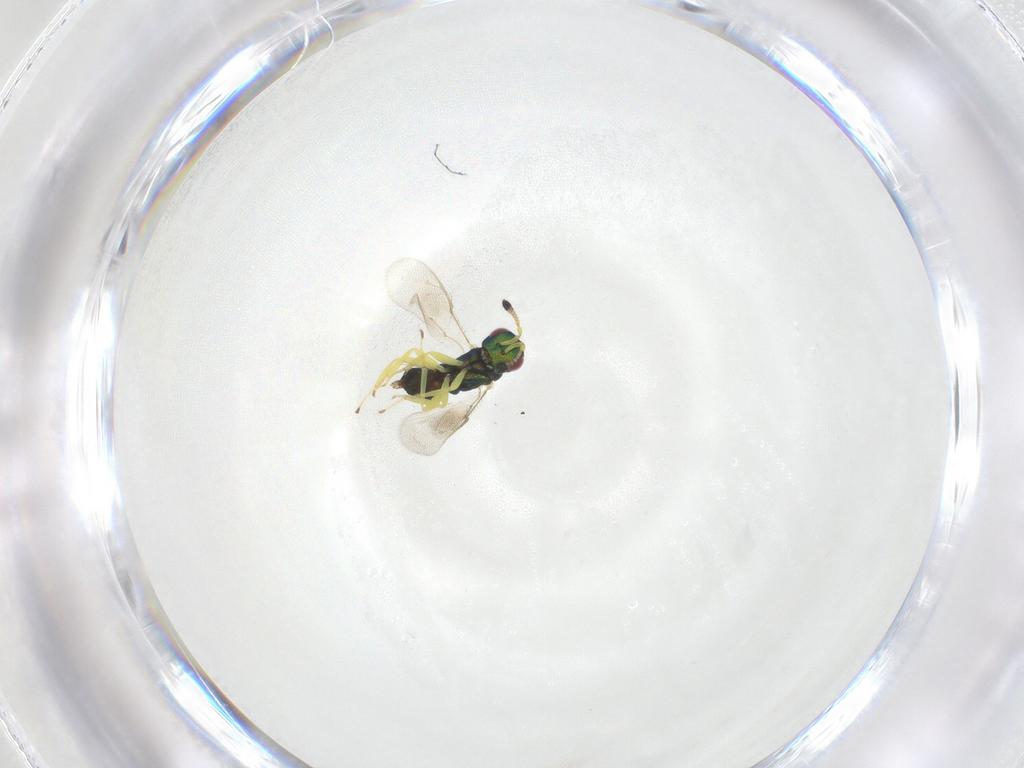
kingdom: Animalia
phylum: Arthropoda
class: Insecta
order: Hymenoptera
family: Pteromalidae
